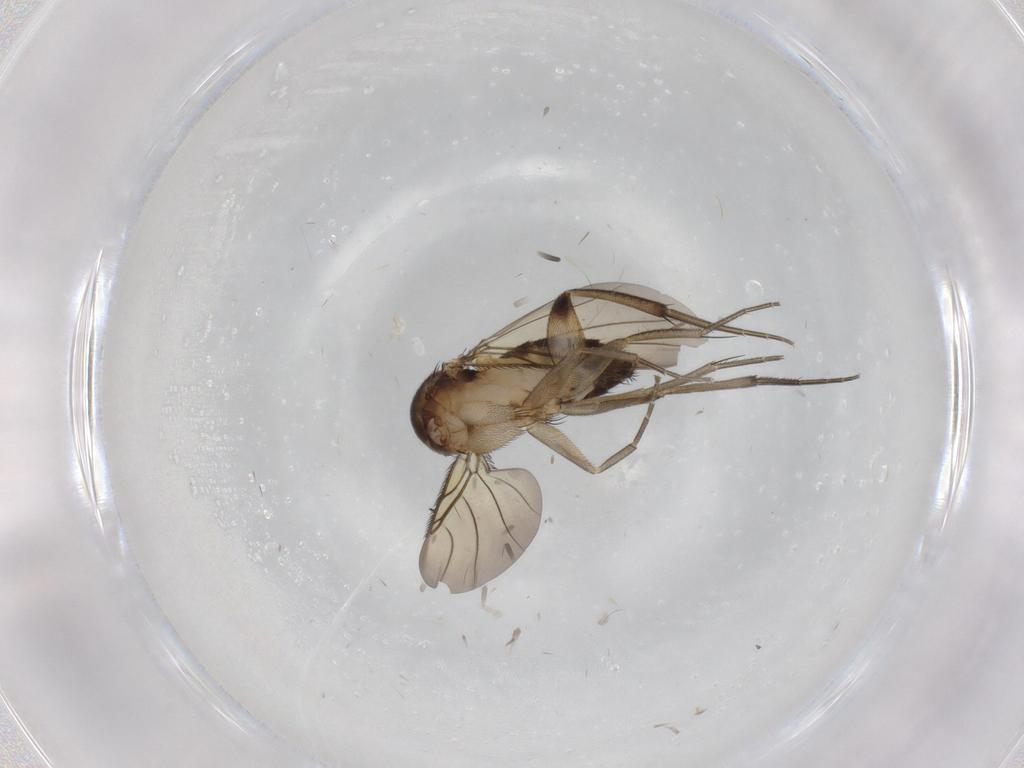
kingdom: Animalia
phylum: Arthropoda
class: Insecta
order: Diptera
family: Phoridae
